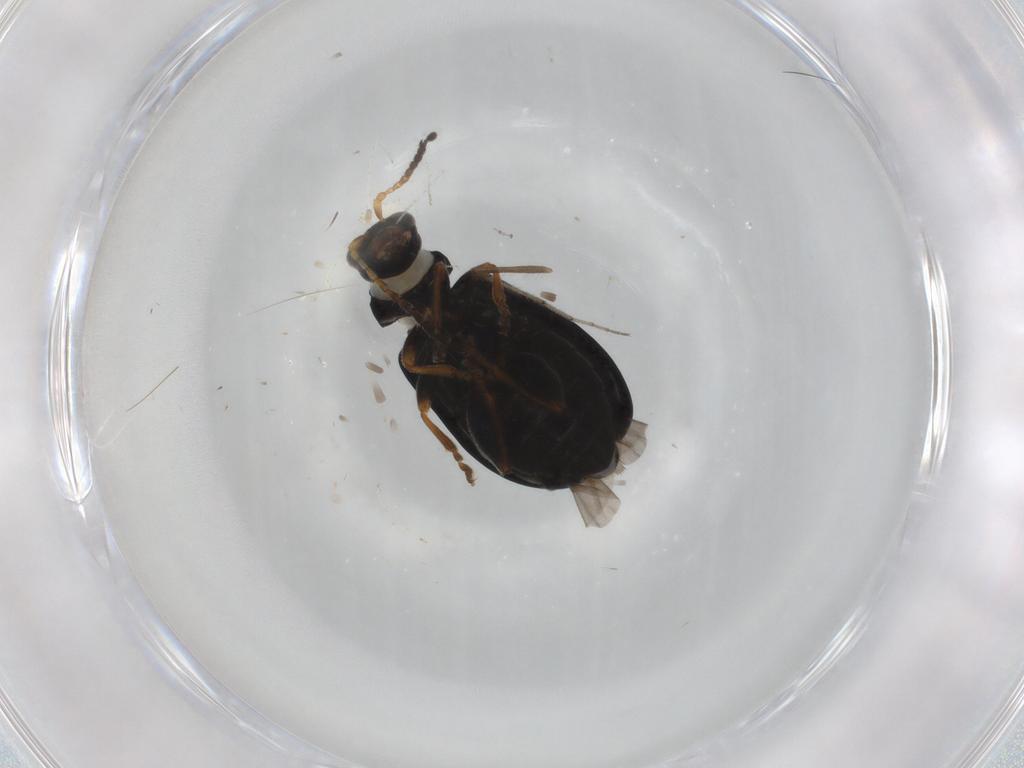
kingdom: Animalia
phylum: Arthropoda
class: Insecta
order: Coleoptera
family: Chrysomelidae
